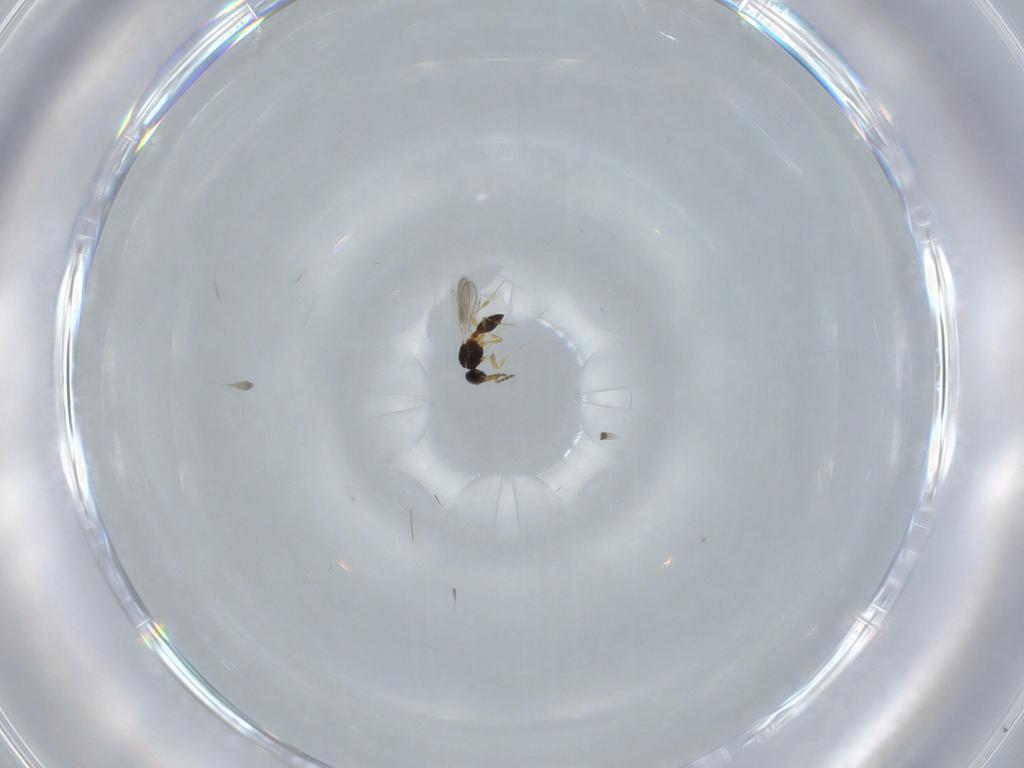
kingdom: Animalia
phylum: Arthropoda
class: Insecta
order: Hymenoptera
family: Platygastridae
